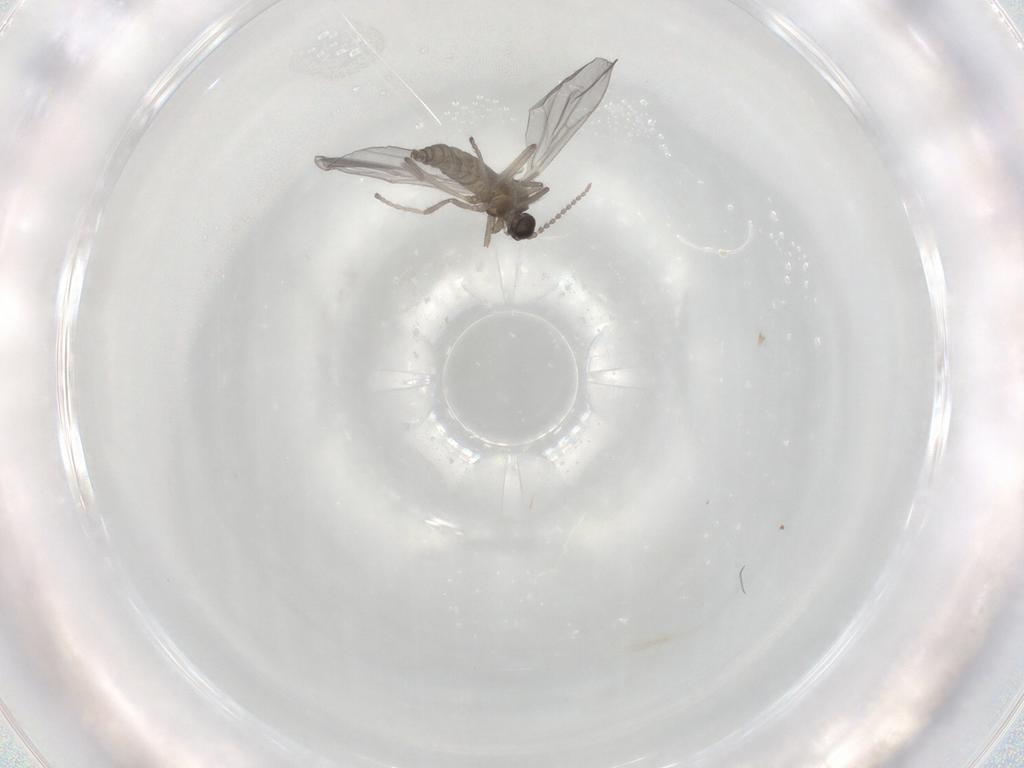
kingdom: Animalia
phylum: Arthropoda
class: Insecta
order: Diptera
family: Cecidomyiidae
